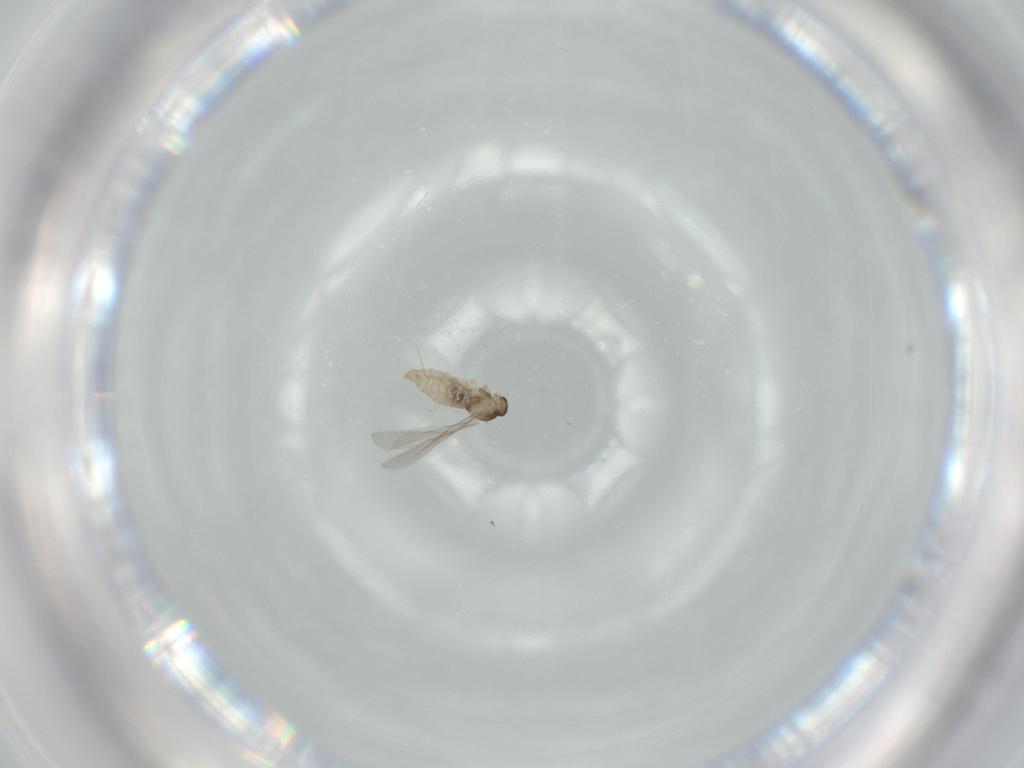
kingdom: Animalia
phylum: Arthropoda
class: Insecta
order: Diptera
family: Cecidomyiidae
